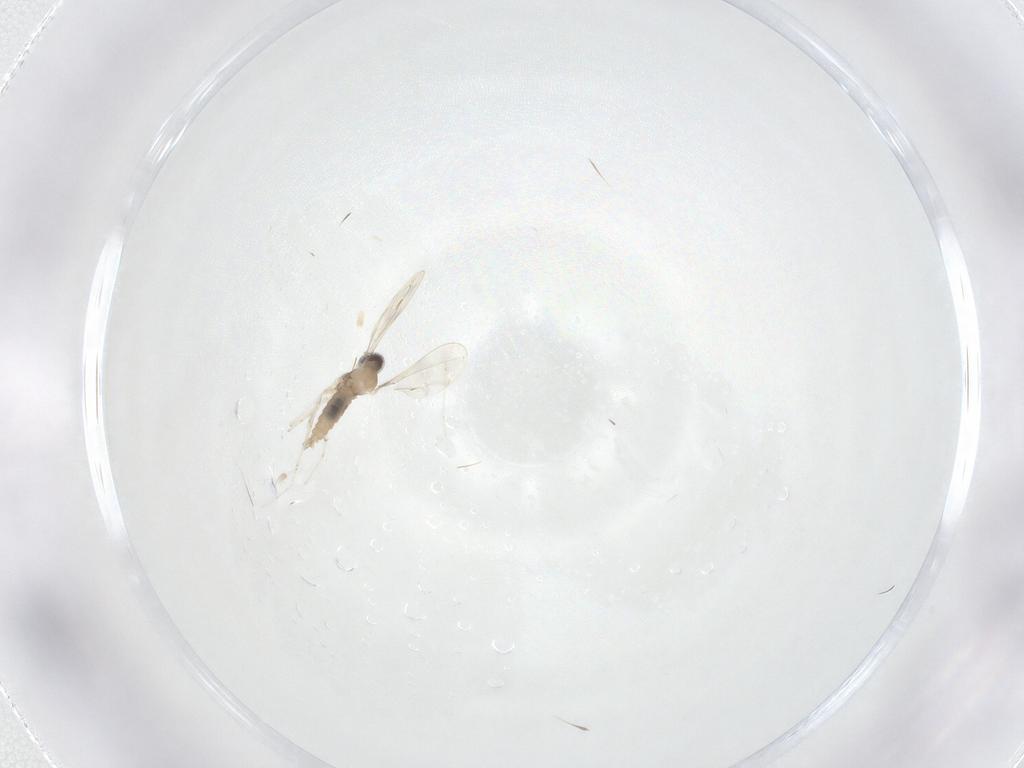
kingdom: Animalia
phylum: Arthropoda
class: Insecta
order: Diptera
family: Cecidomyiidae
